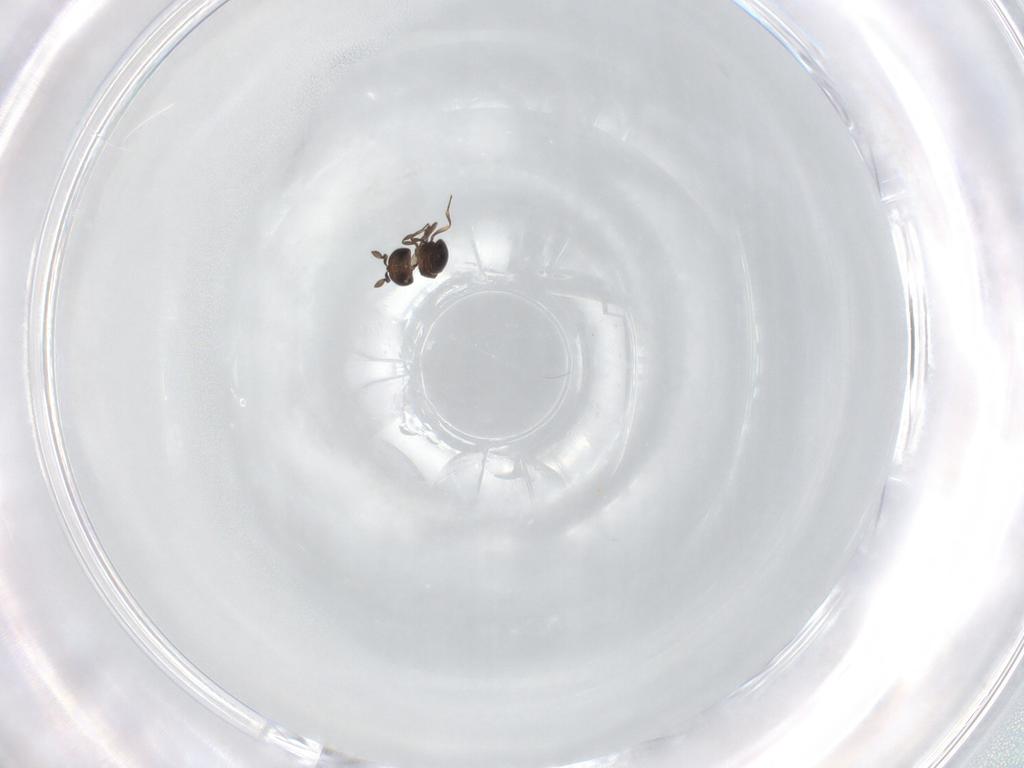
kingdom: Animalia
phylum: Arthropoda
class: Insecta
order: Hymenoptera
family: Scelionidae
